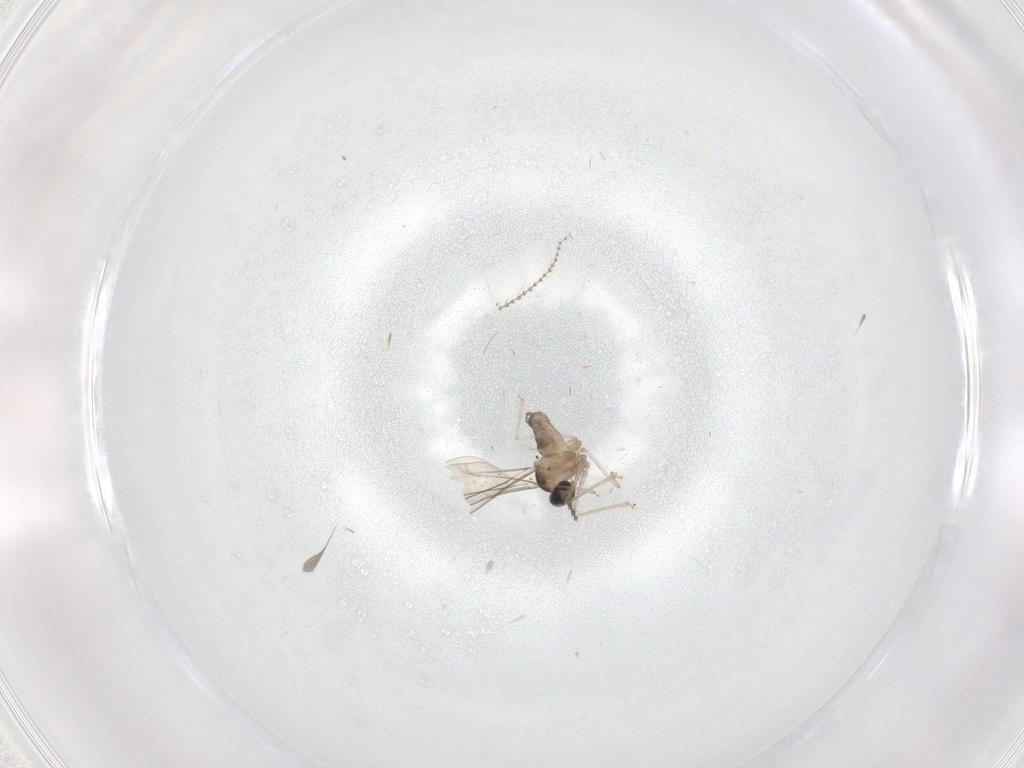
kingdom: Animalia
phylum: Arthropoda
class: Insecta
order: Diptera
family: Cecidomyiidae
